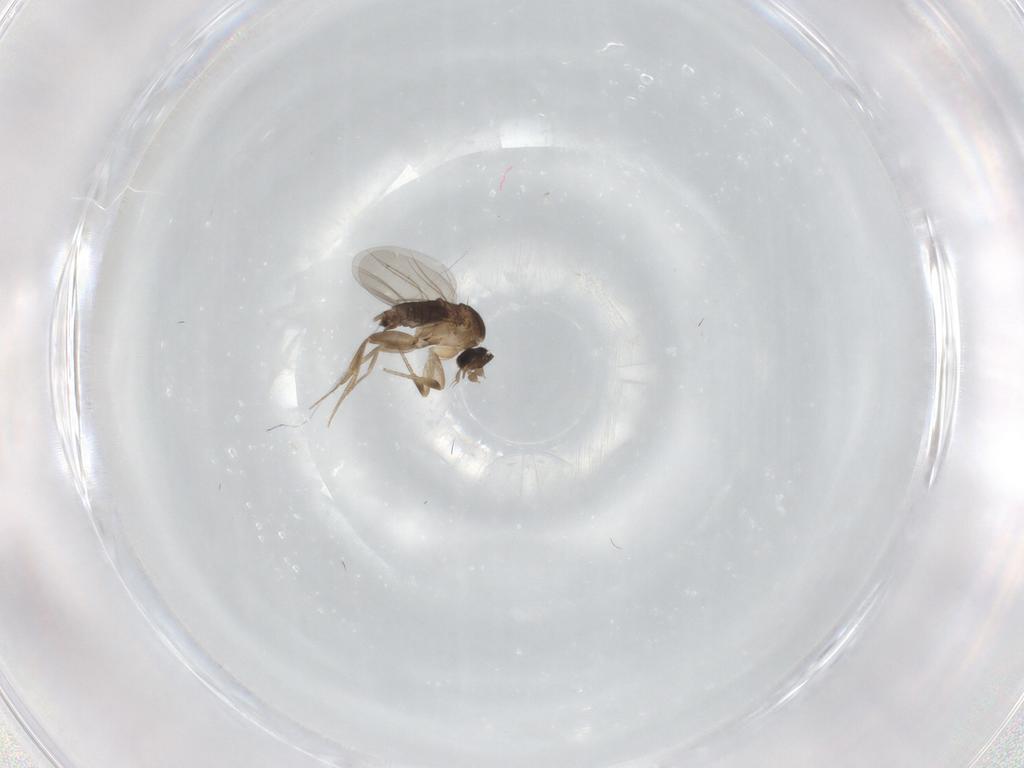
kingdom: Animalia
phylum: Arthropoda
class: Insecta
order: Diptera
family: Phoridae
